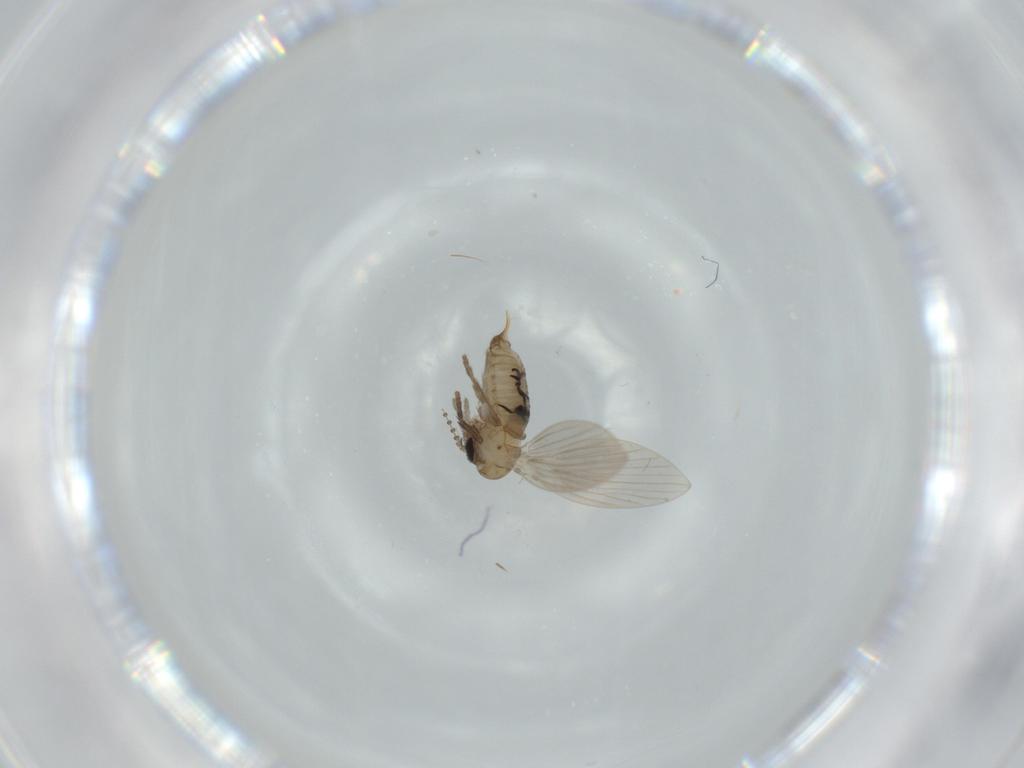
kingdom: Animalia
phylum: Arthropoda
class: Insecta
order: Diptera
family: Psychodidae
